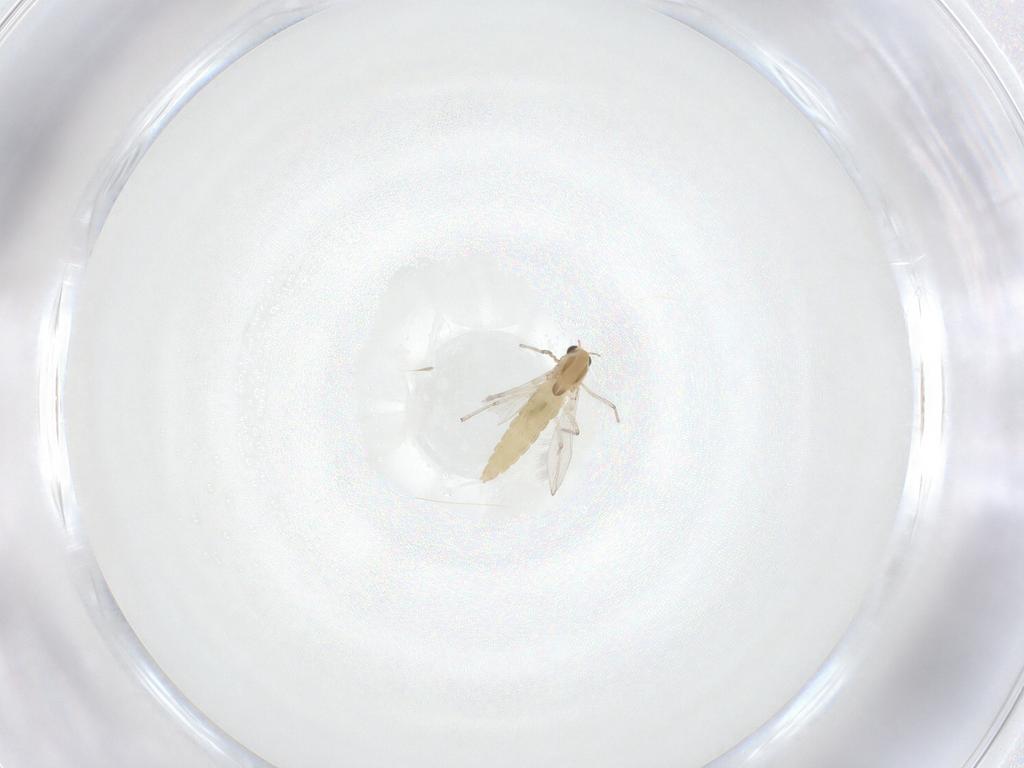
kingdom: Animalia
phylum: Arthropoda
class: Insecta
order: Diptera
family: Chironomidae
